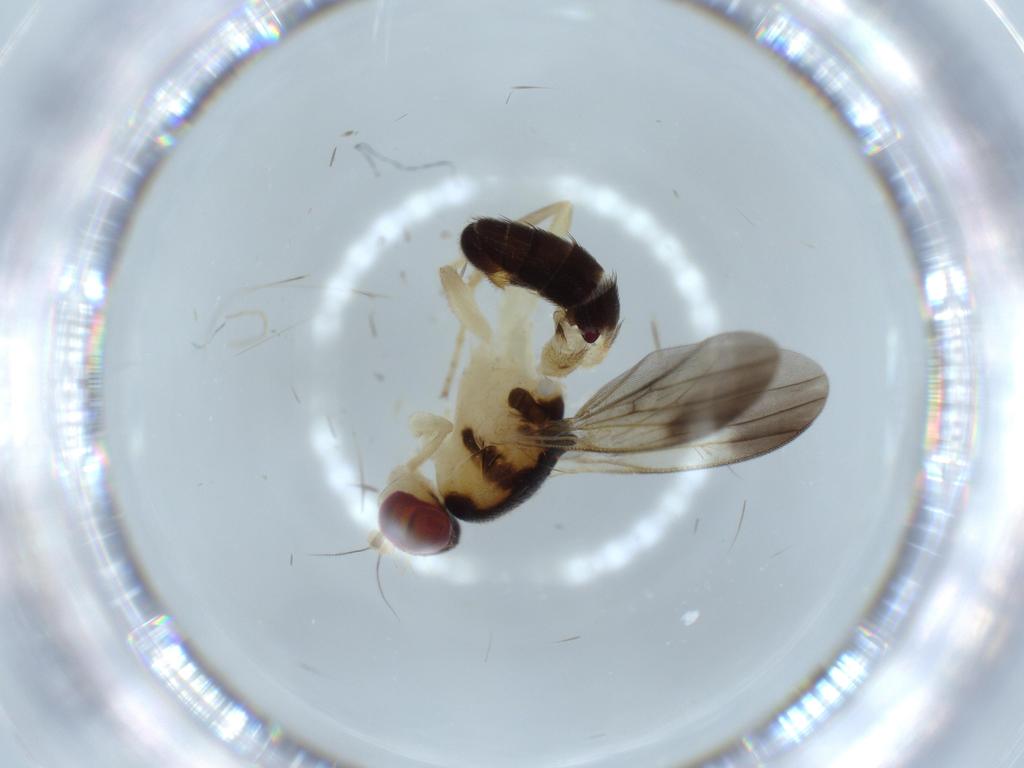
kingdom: Animalia
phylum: Arthropoda
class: Insecta
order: Diptera
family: Clusiidae
